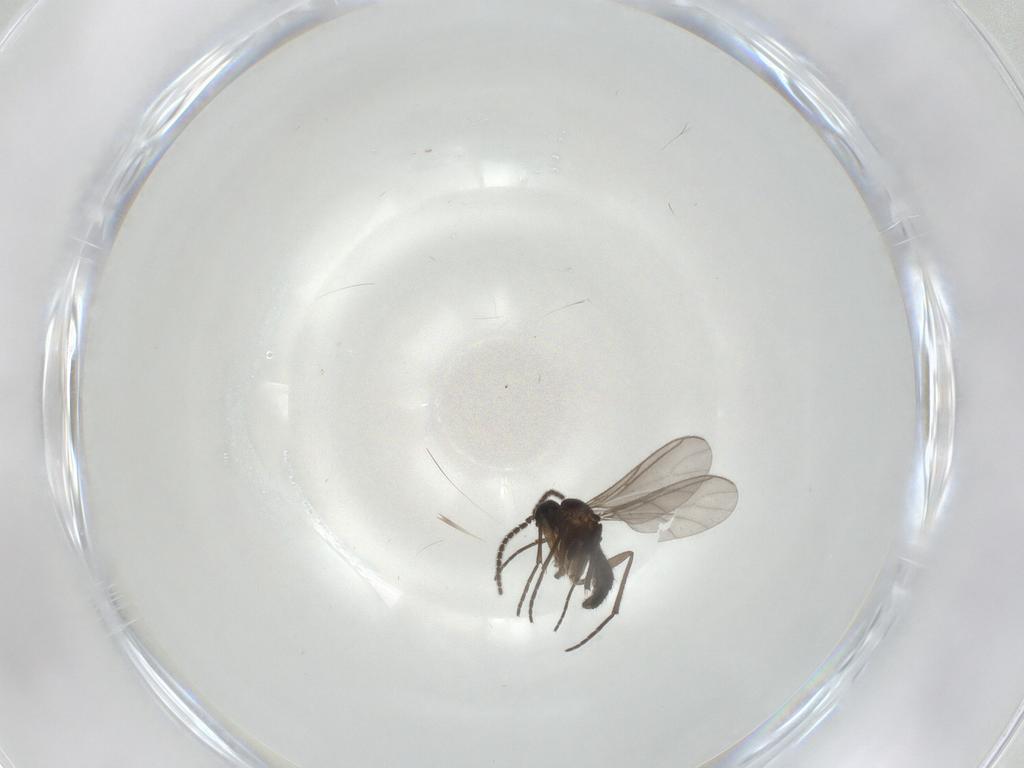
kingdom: Animalia
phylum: Arthropoda
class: Insecta
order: Diptera
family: Sciaridae
